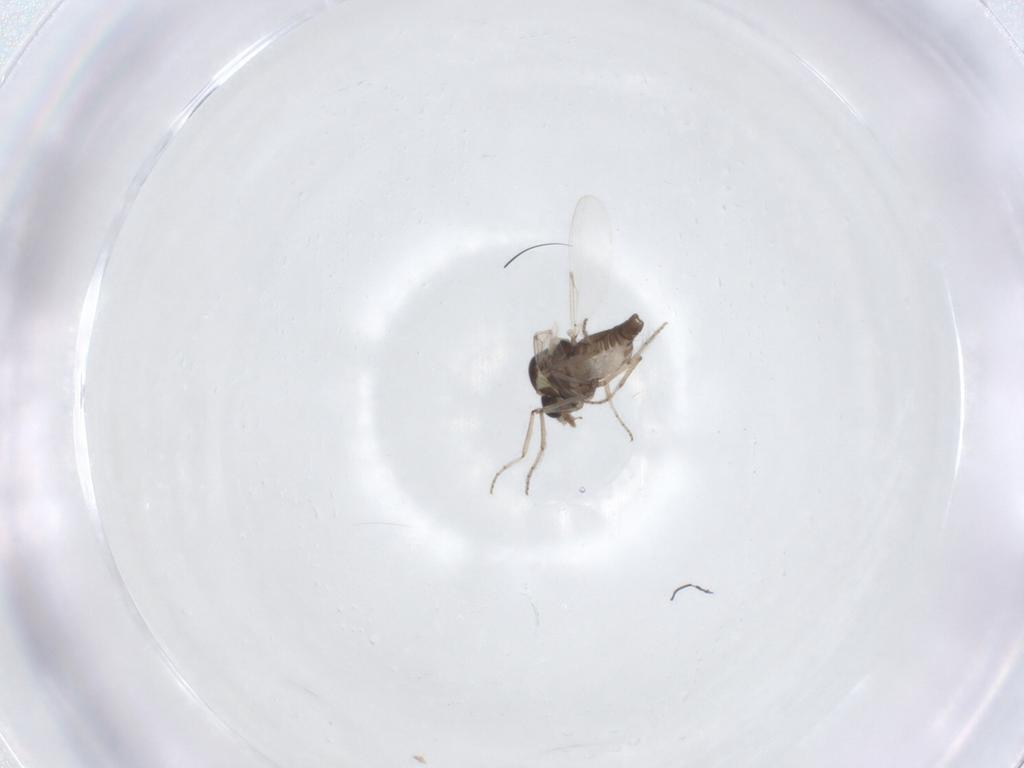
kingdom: Animalia
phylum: Arthropoda
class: Insecta
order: Diptera
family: Ceratopogonidae
